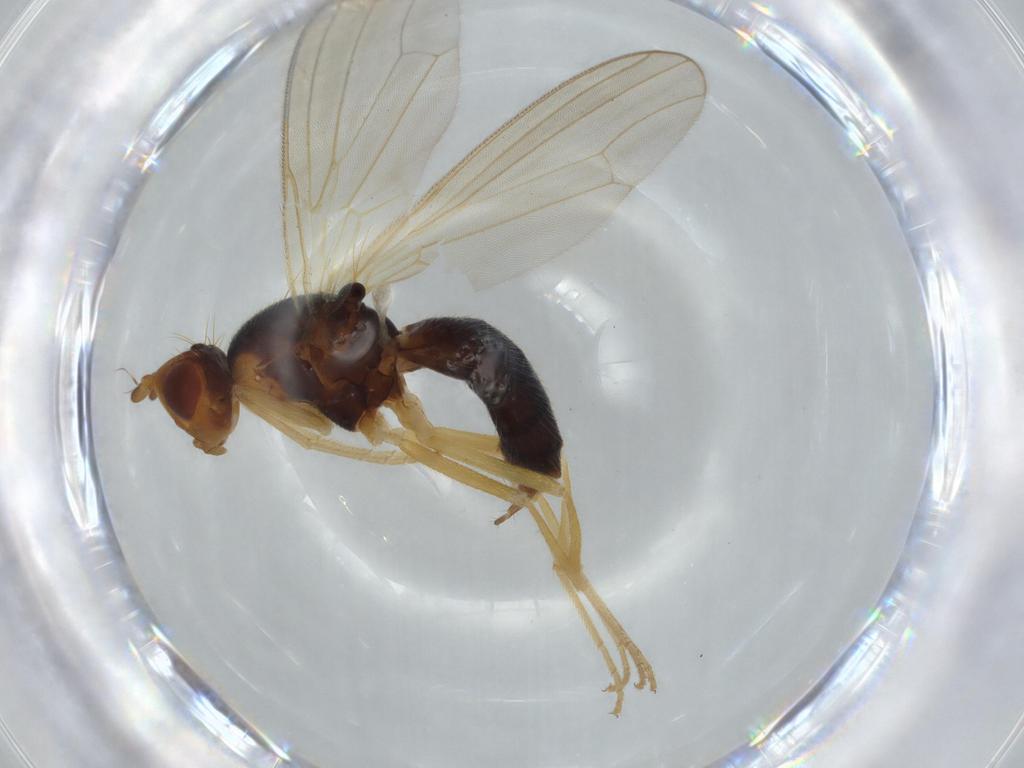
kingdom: Animalia
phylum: Arthropoda
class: Insecta
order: Diptera
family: Psilidae
